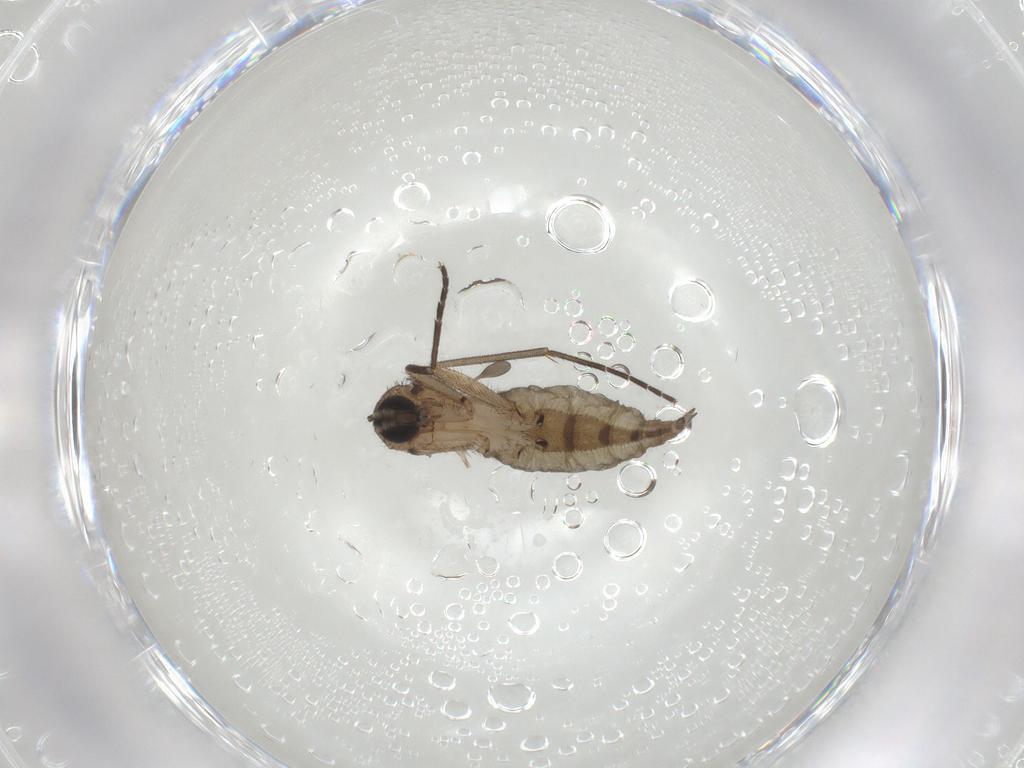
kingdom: Animalia
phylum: Arthropoda
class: Insecta
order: Diptera
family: Sciaridae
